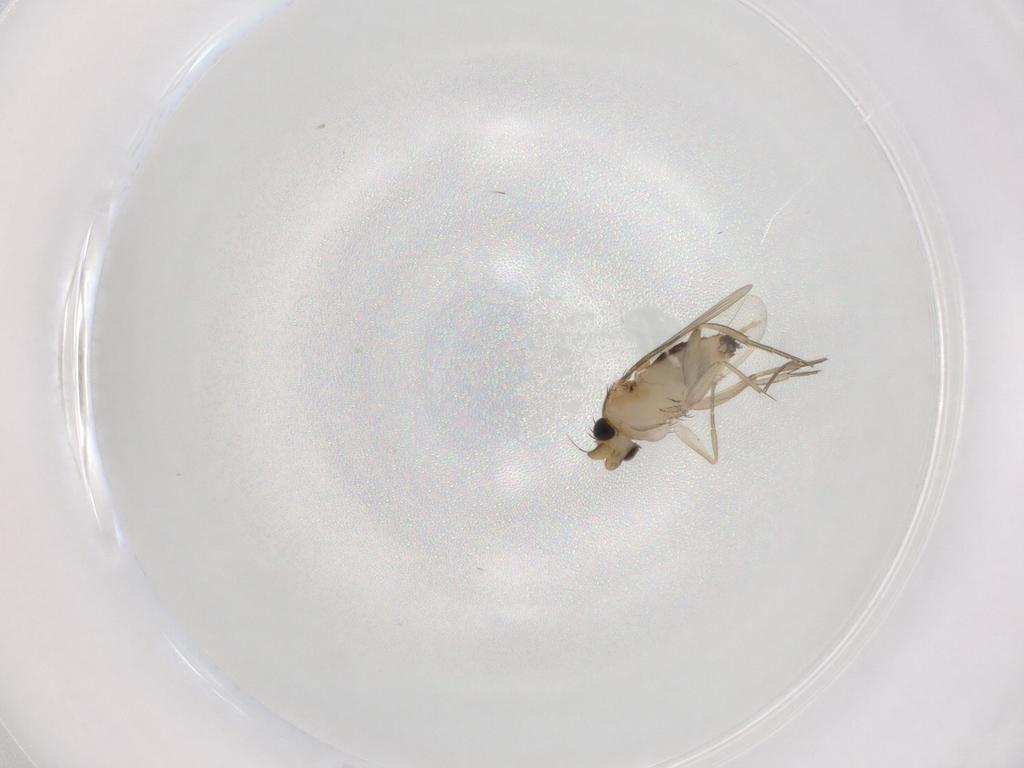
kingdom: Animalia
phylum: Arthropoda
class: Insecta
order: Diptera
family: Phoridae
